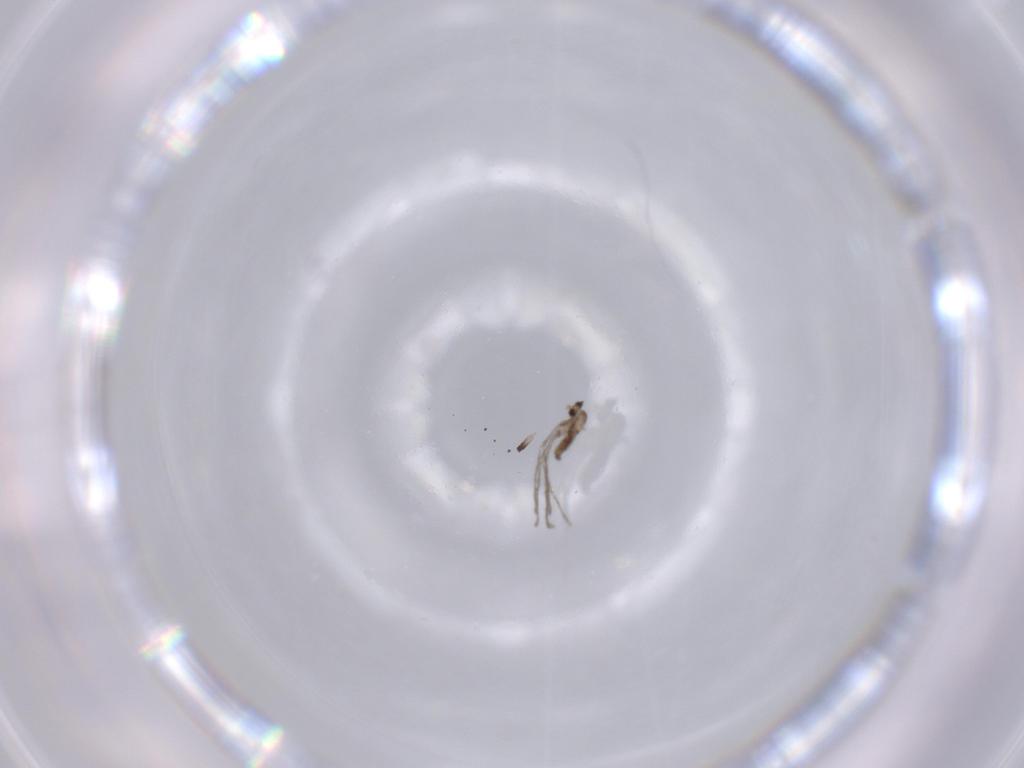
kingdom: Animalia
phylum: Arthropoda
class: Insecta
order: Diptera
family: Cecidomyiidae
